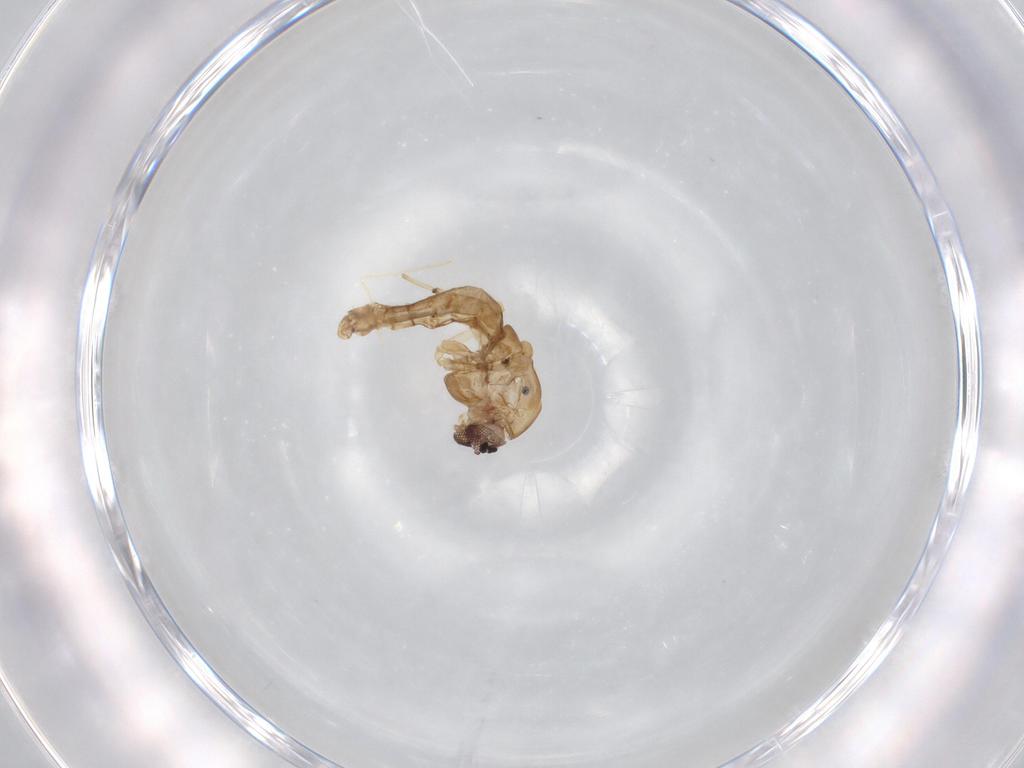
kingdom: Animalia
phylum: Arthropoda
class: Insecta
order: Diptera
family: Chironomidae
